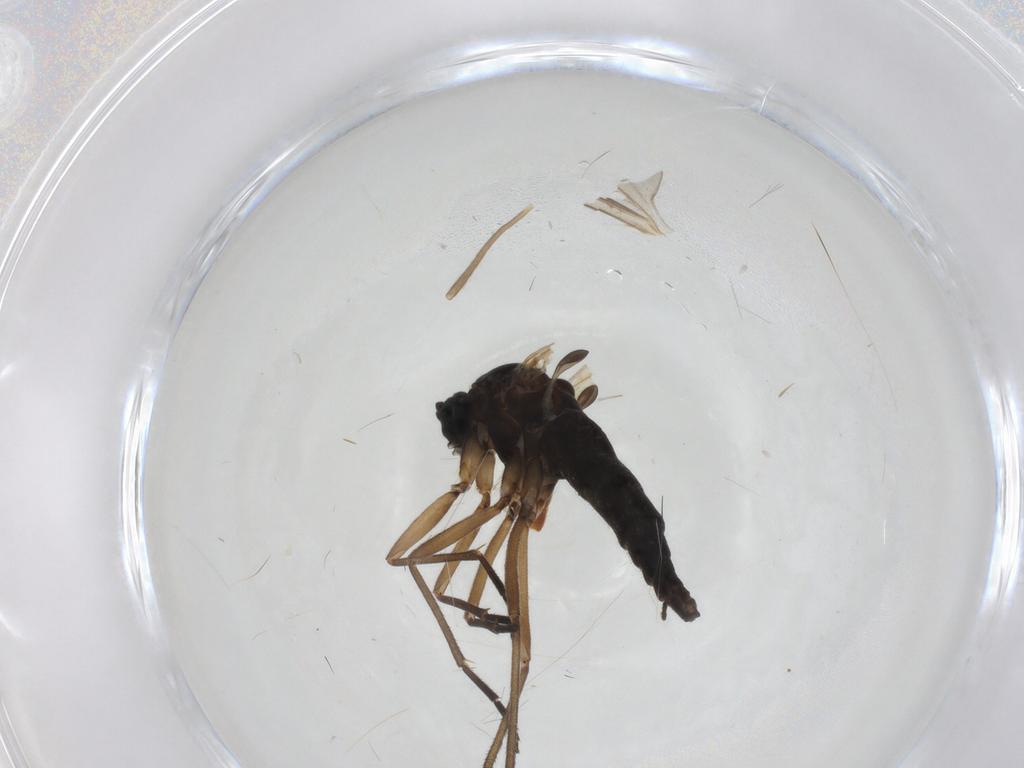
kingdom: Animalia
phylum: Arthropoda
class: Insecta
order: Diptera
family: Sciaridae
